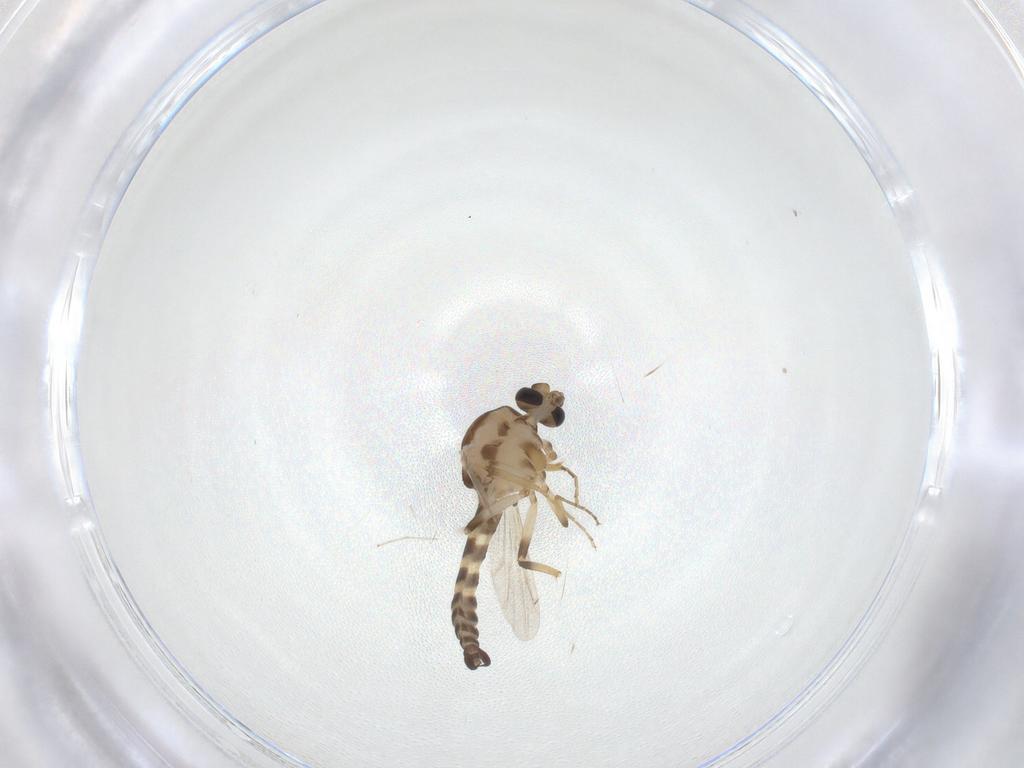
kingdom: Animalia
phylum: Arthropoda
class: Insecta
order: Diptera
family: Ceratopogonidae
